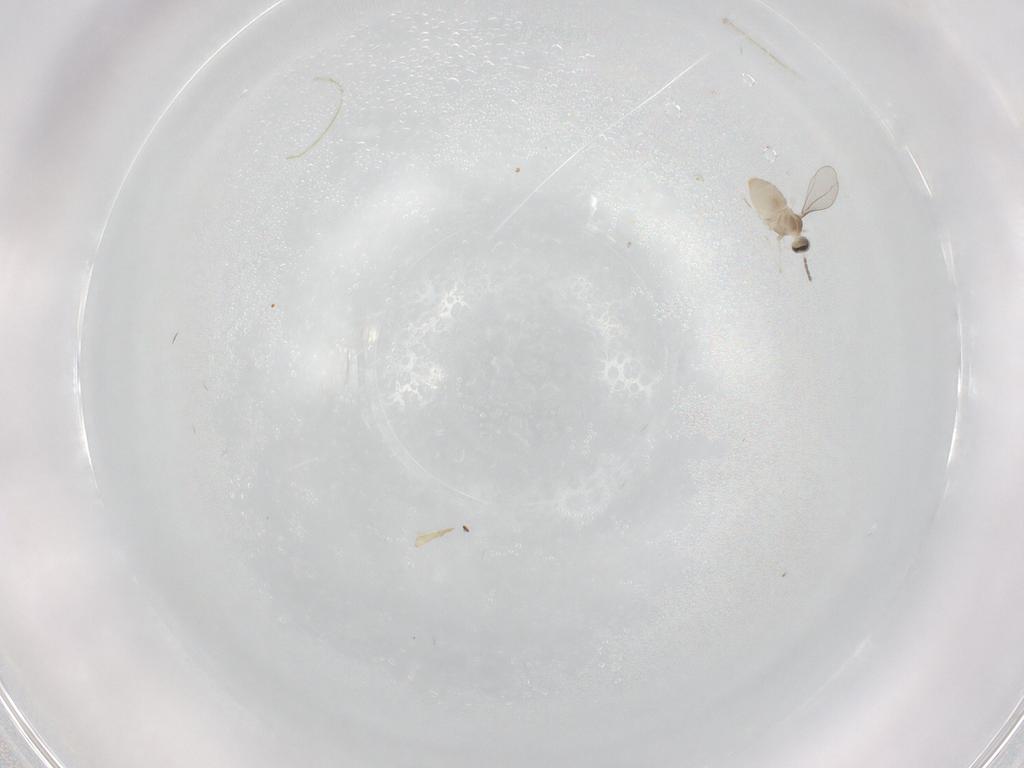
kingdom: Animalia
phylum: Arthropoda
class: Insecta
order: Diptera
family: Cecidomyiidae
